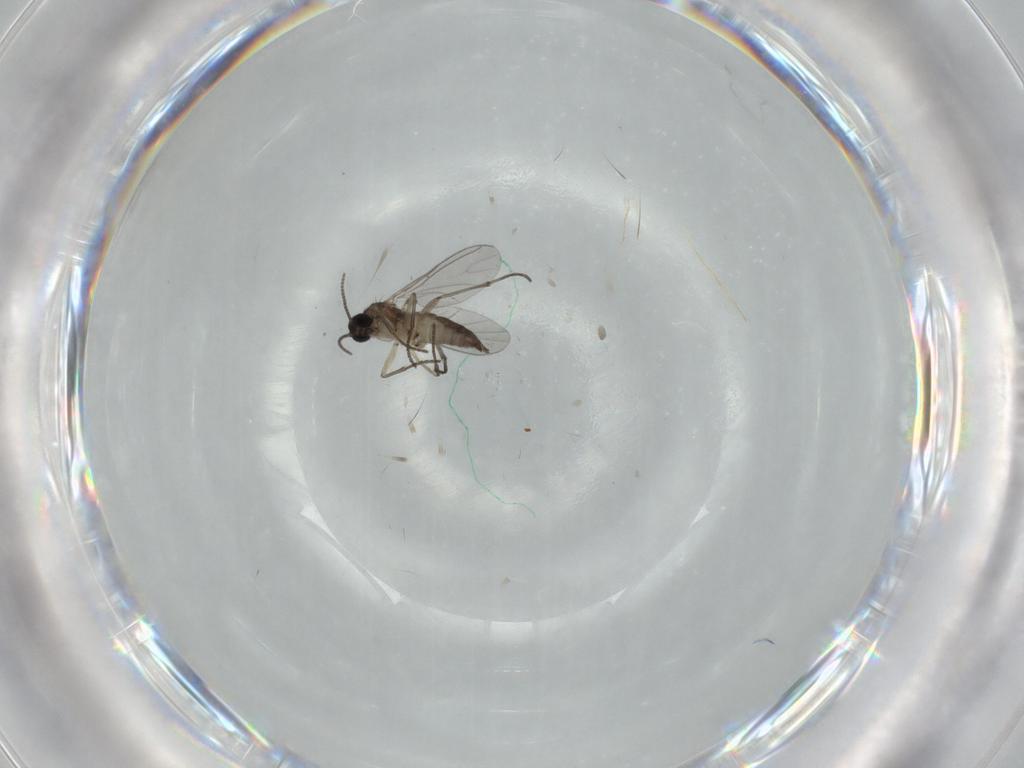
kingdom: Animalia
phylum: Arthropoda
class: Insecta
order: Diptera
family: Sciaridae
